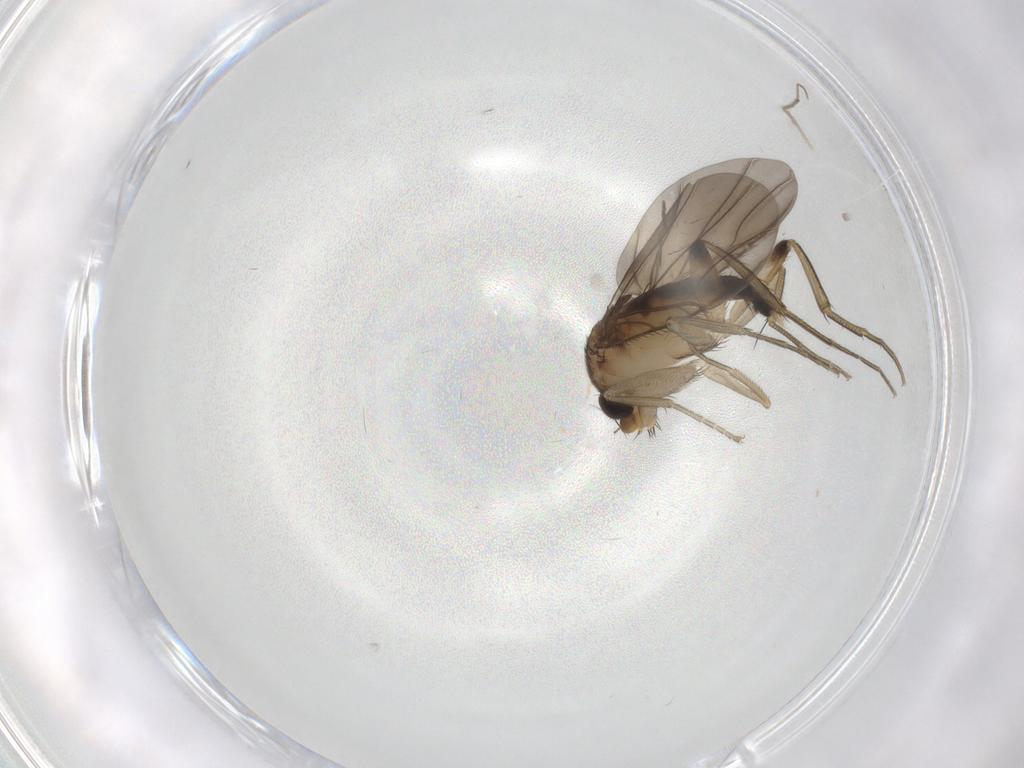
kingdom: Animalia
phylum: Arthropoda
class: Insecta
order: Diptera
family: Phoridae
